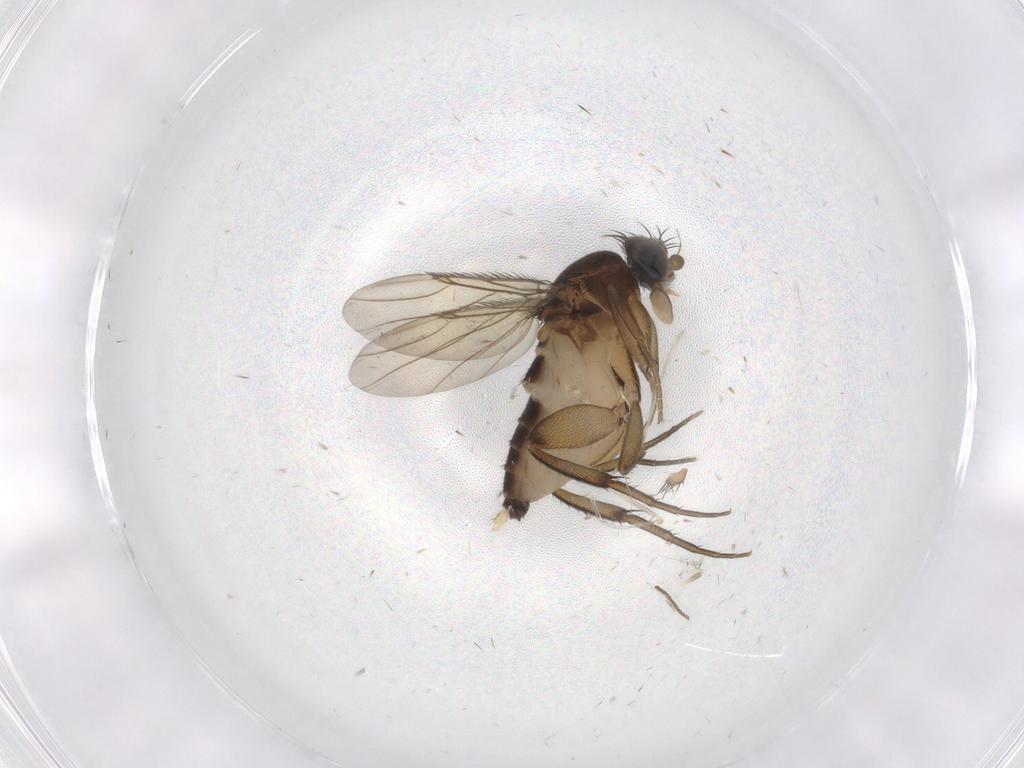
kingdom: Animalia
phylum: Arthropoda
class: Insecta
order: Diptera
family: Phoridae
